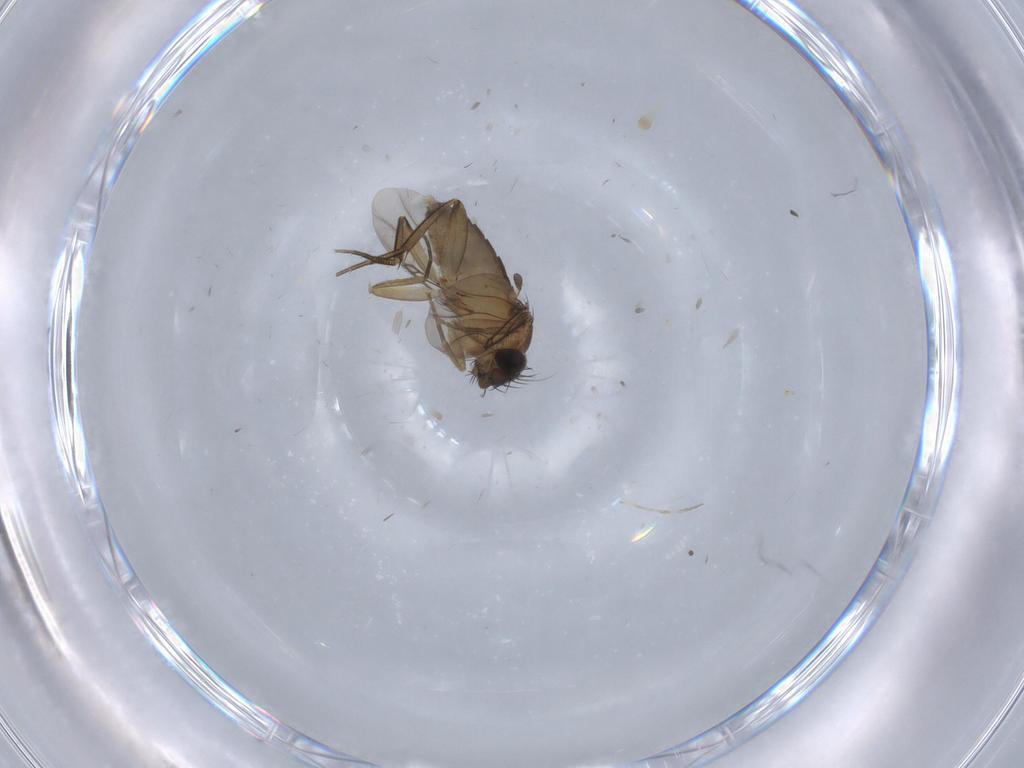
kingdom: Animalia
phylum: Arthropoda
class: Insecta
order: Diptera
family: Phoridae
